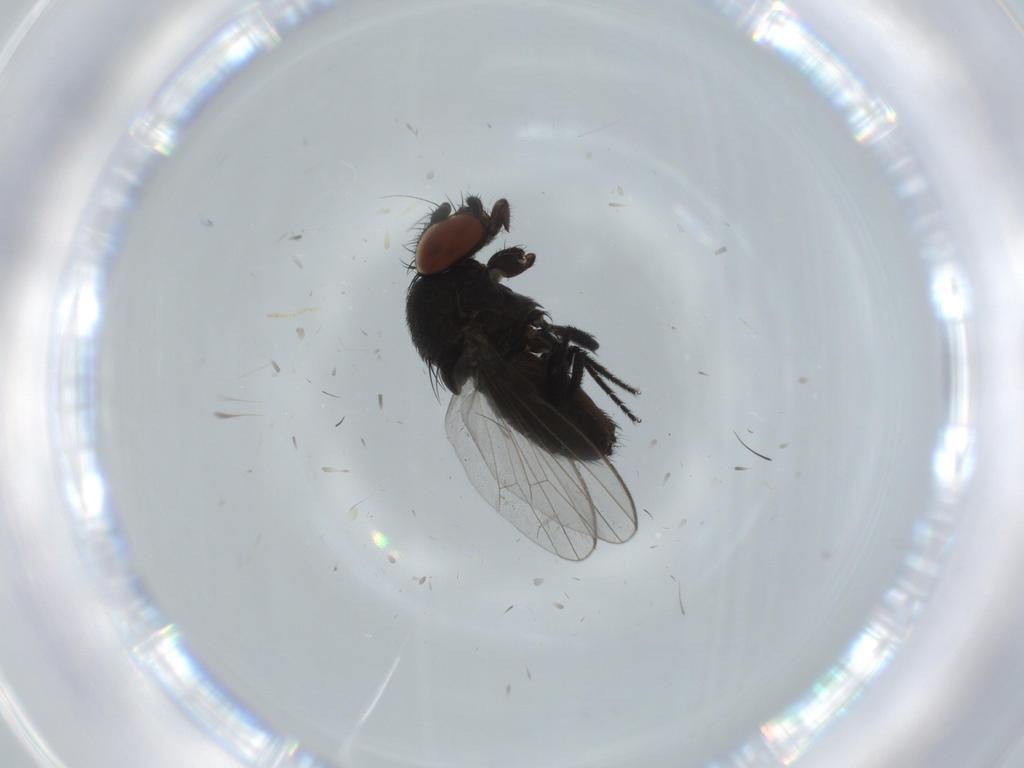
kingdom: Animalia
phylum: Arthropoda
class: Insecta
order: Diptera
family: Milichiidae
